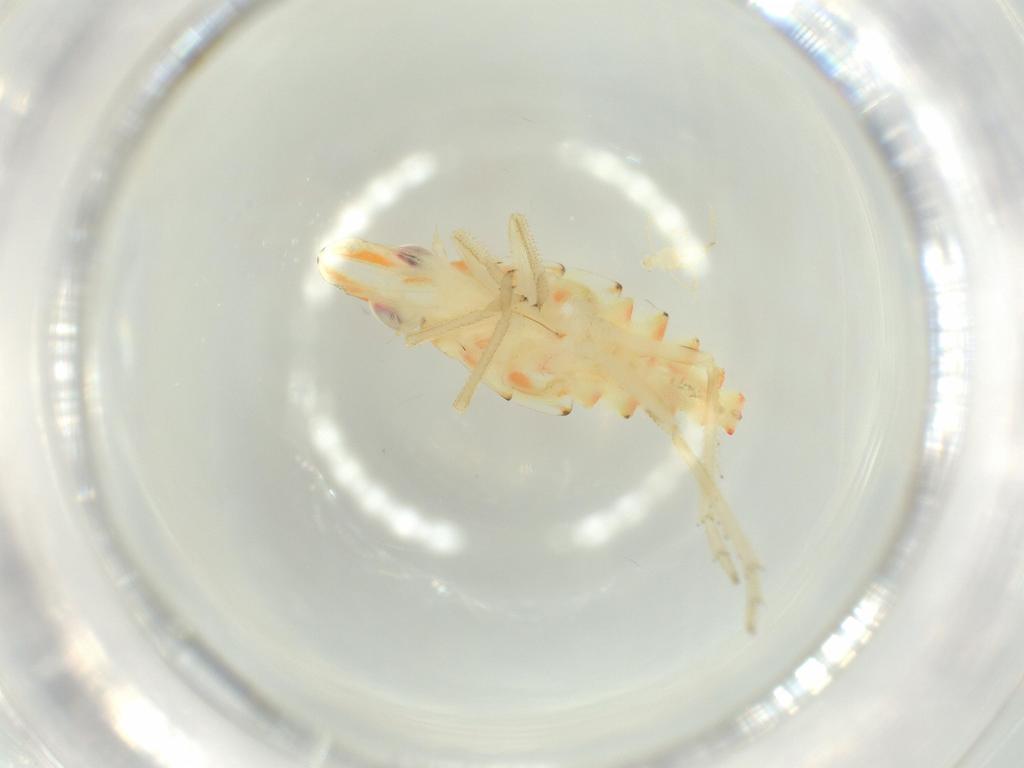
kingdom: Animalia
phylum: Arthropoda
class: Insecta
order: Hemiptera
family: Tropiduchidae
